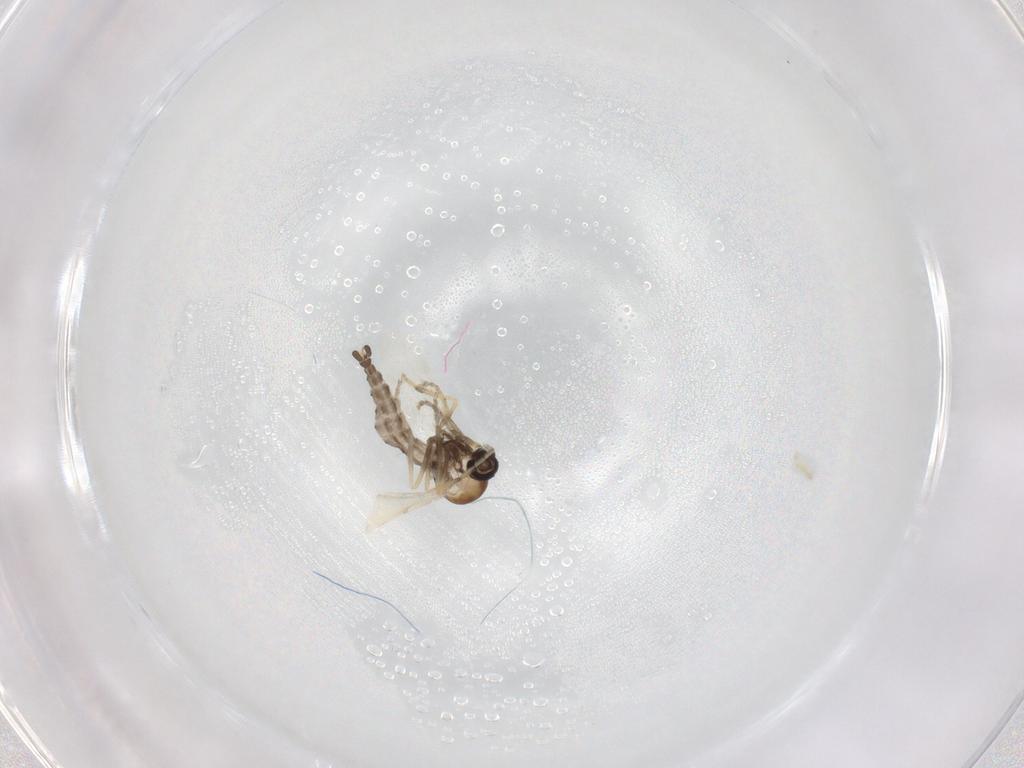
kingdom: Animalia
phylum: Arthropoda
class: Insecta
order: Diptera
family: Ceratopogonidae
